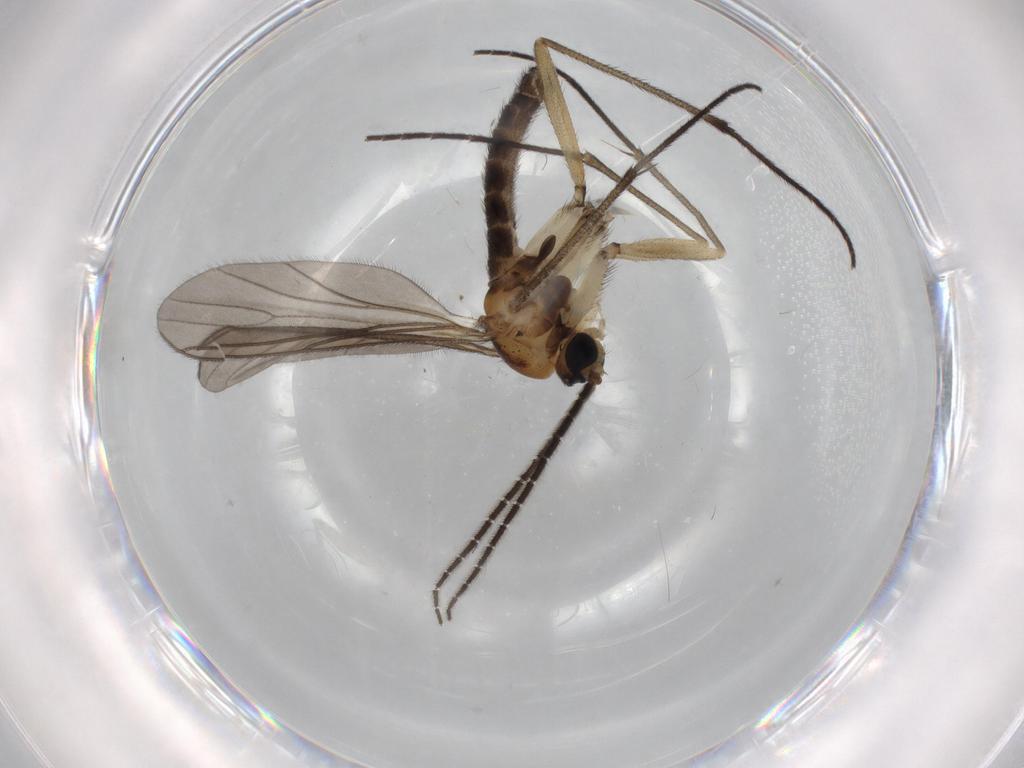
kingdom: Animalia
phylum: Arthropoda
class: Insecta
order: Diptera
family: Sciaridae
